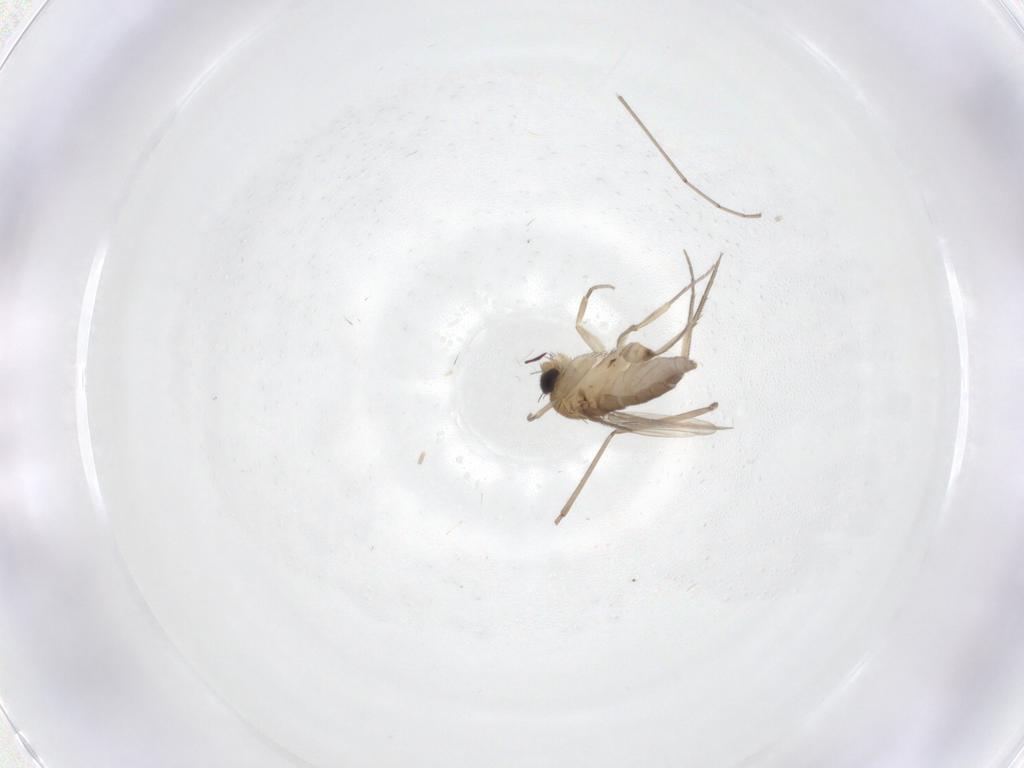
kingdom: Animalia
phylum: Arthropoda
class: Insecta
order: Diptera
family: Phoridae
